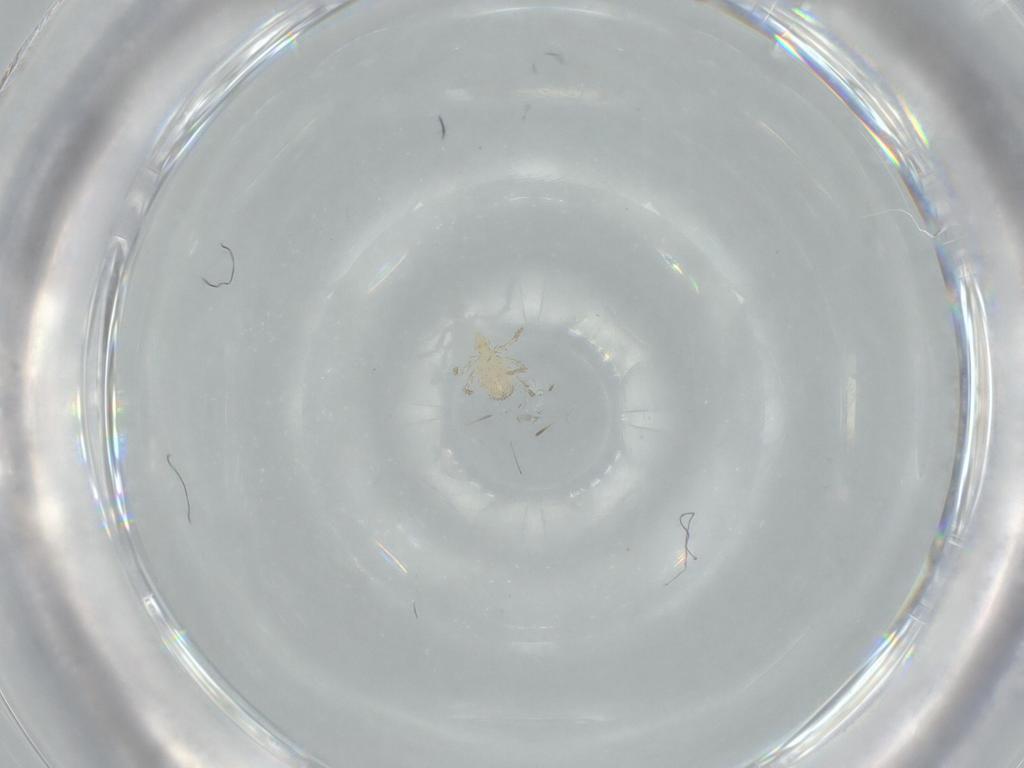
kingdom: Animalia
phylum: Arthropoda
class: Arachnida
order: Trombidiformes
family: Erythraeidae
